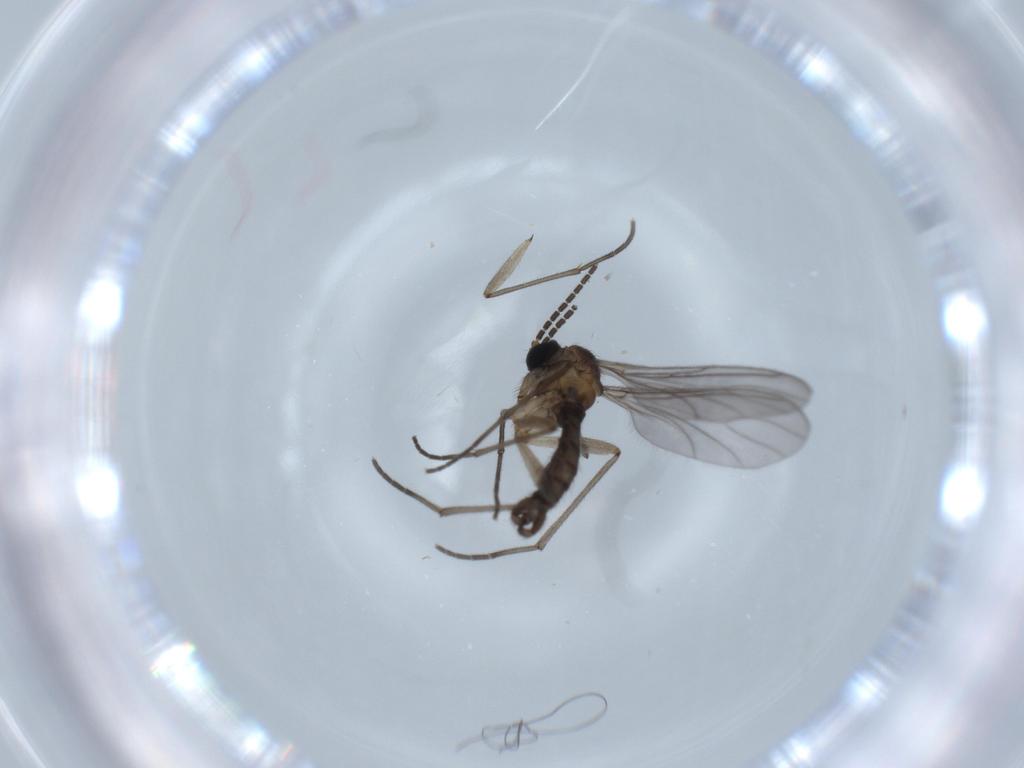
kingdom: Animalia
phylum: Arthropoda
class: Insecta
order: Diptera
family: Sciaridae
